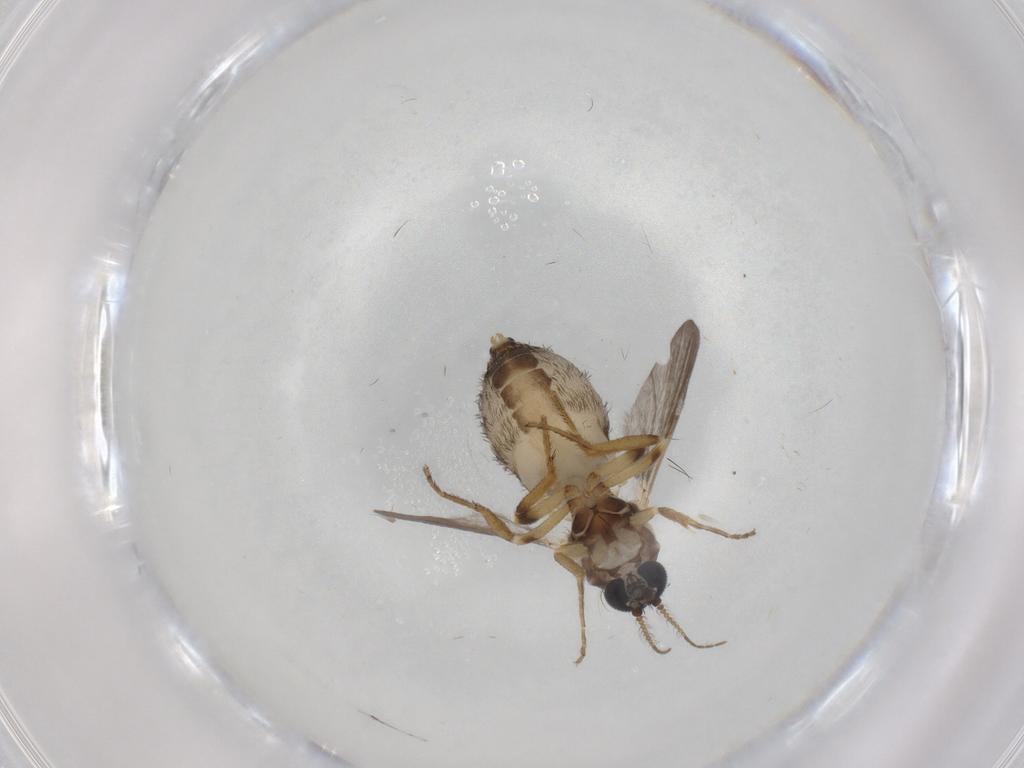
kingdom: Animalia
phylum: Arthropoda
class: Insecta
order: Diptera
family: Ceratopogonidae
